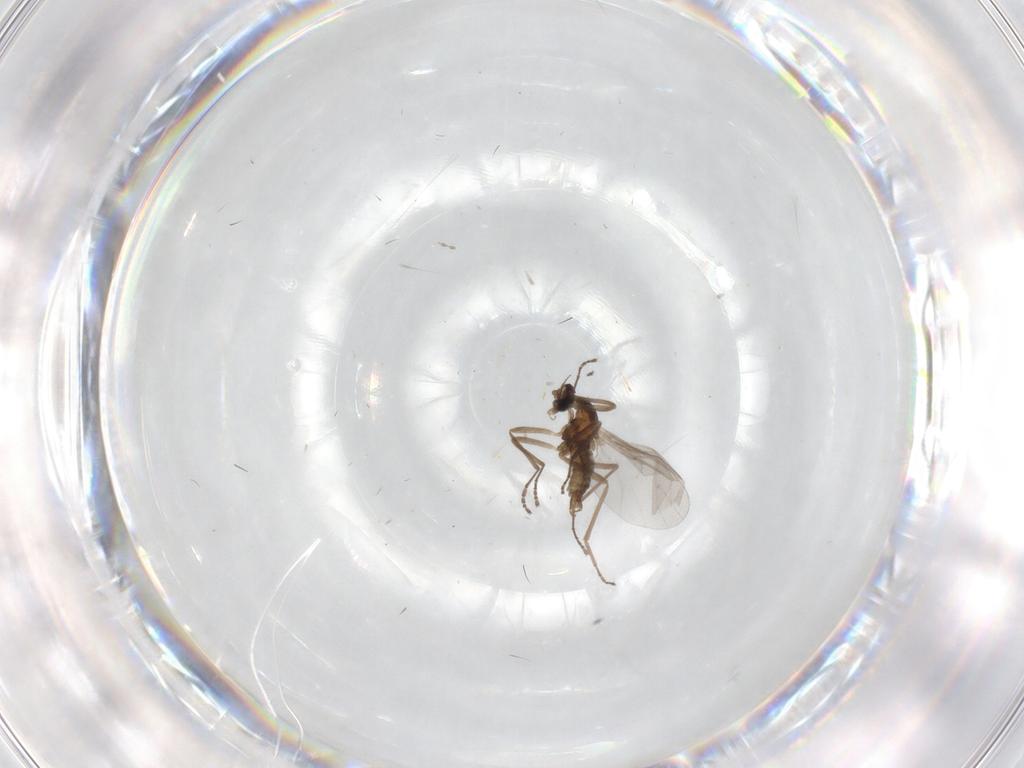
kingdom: Animalia
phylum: Arthropoda
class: Insecta
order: Diptera
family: Cecidomyiidae
